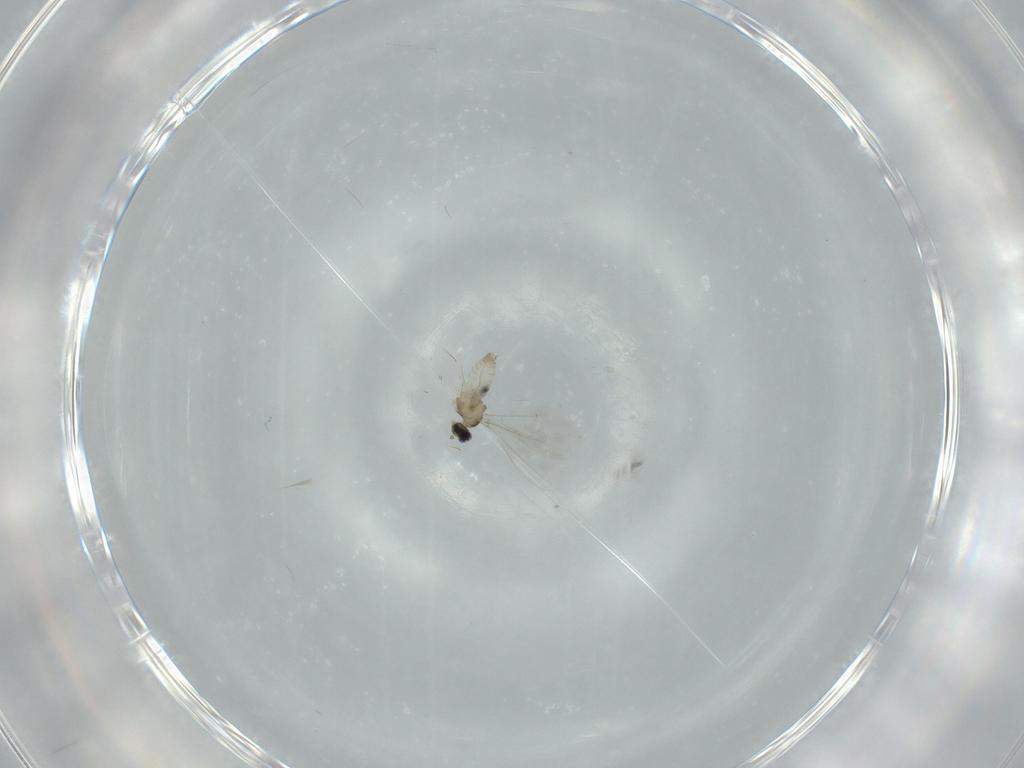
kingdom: Animalia
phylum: Arthropoda
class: Insecta
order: Diptera
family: Cecidomyiidae
